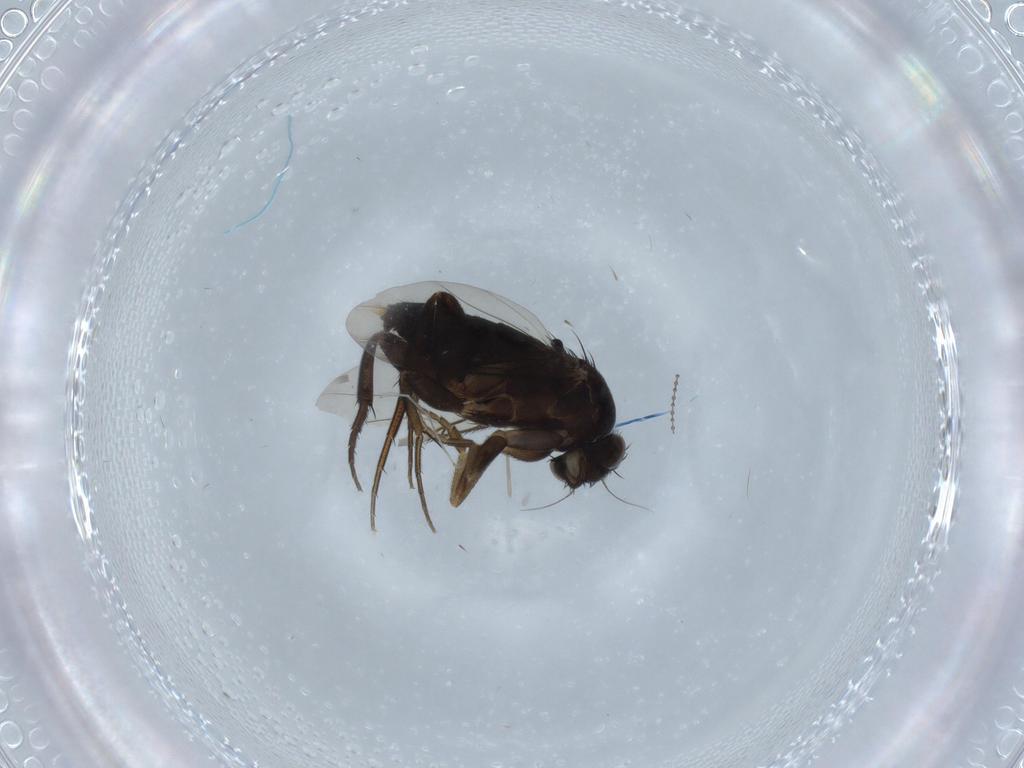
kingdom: Animalia
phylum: Arthropoda
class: Insecta
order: Diptera
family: Phoridae
